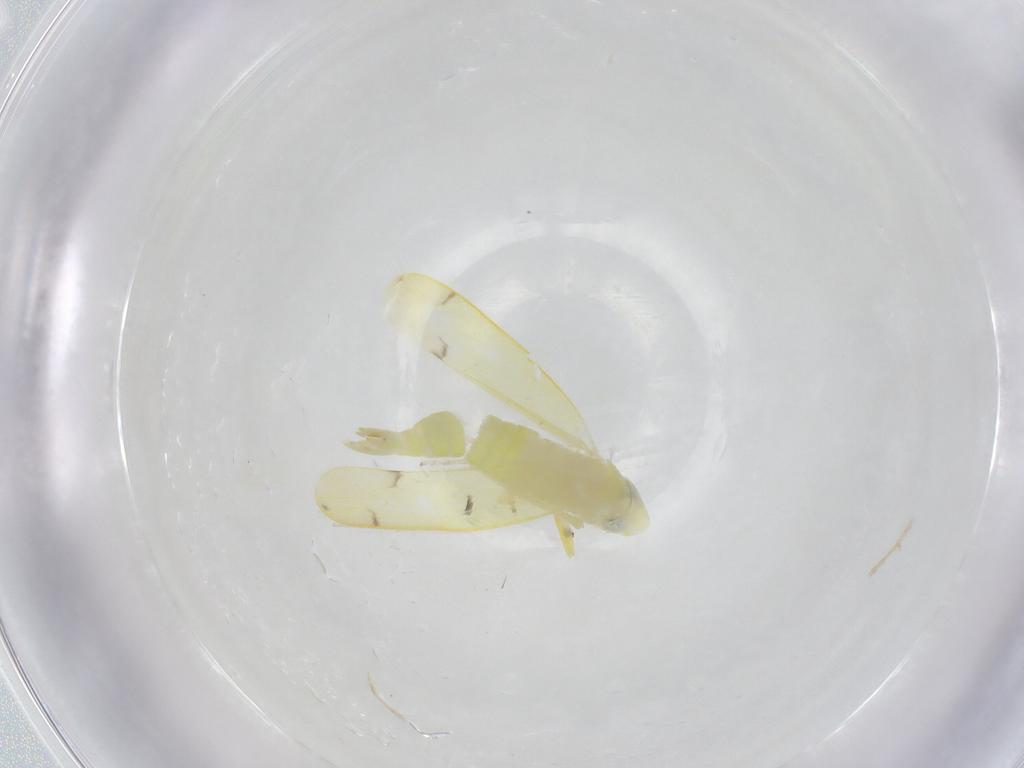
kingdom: Animalia
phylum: Arthropoda
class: Insecta
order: Hemiptera
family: Cicadellidae
